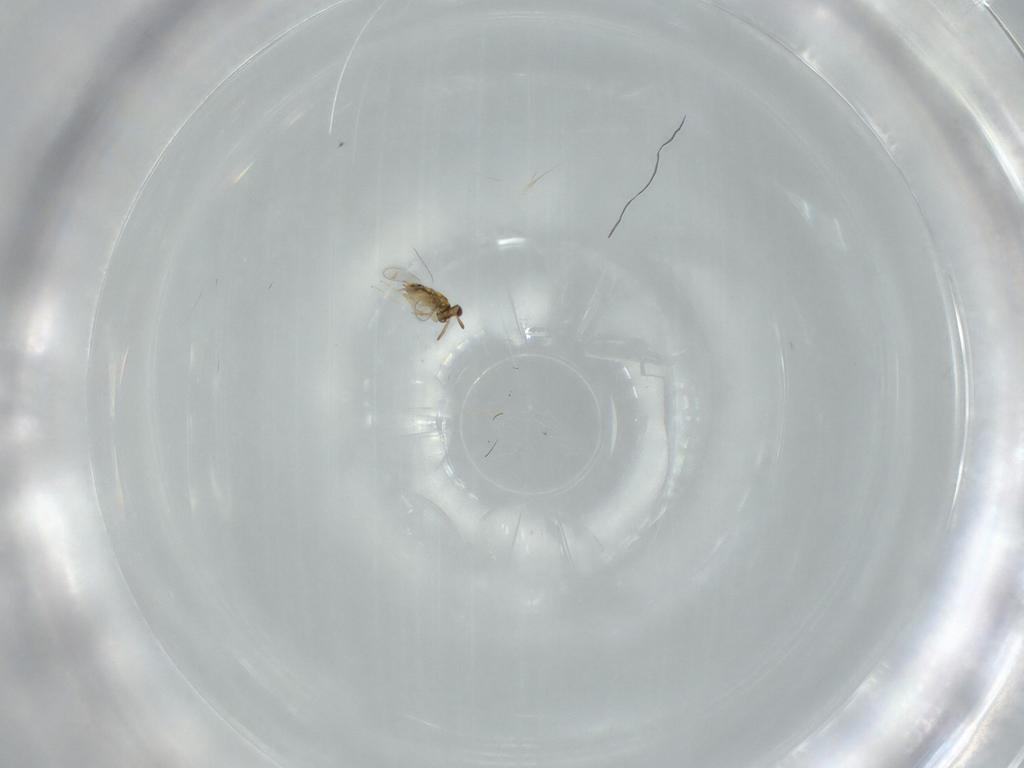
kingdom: Animalia
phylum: Arthropoda
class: Insecta
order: Hymenoptera
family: Aphelinidae
